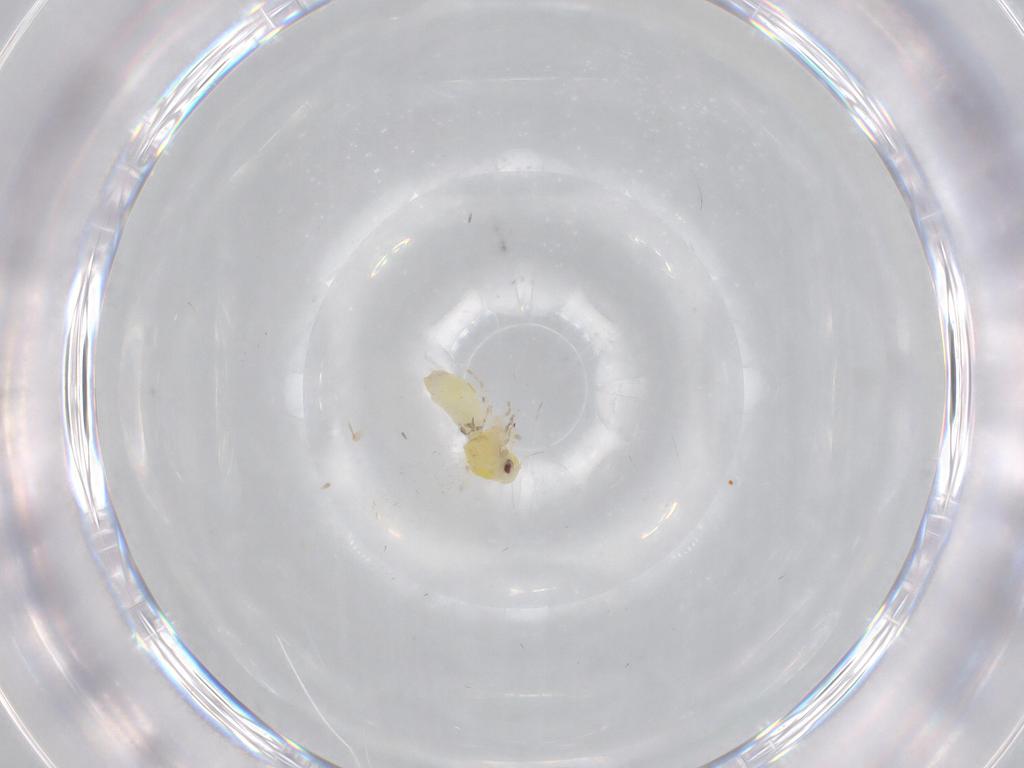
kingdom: Animalia
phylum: Arthropoda
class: Insecta
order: Hemiptera
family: Aleyrodidae
